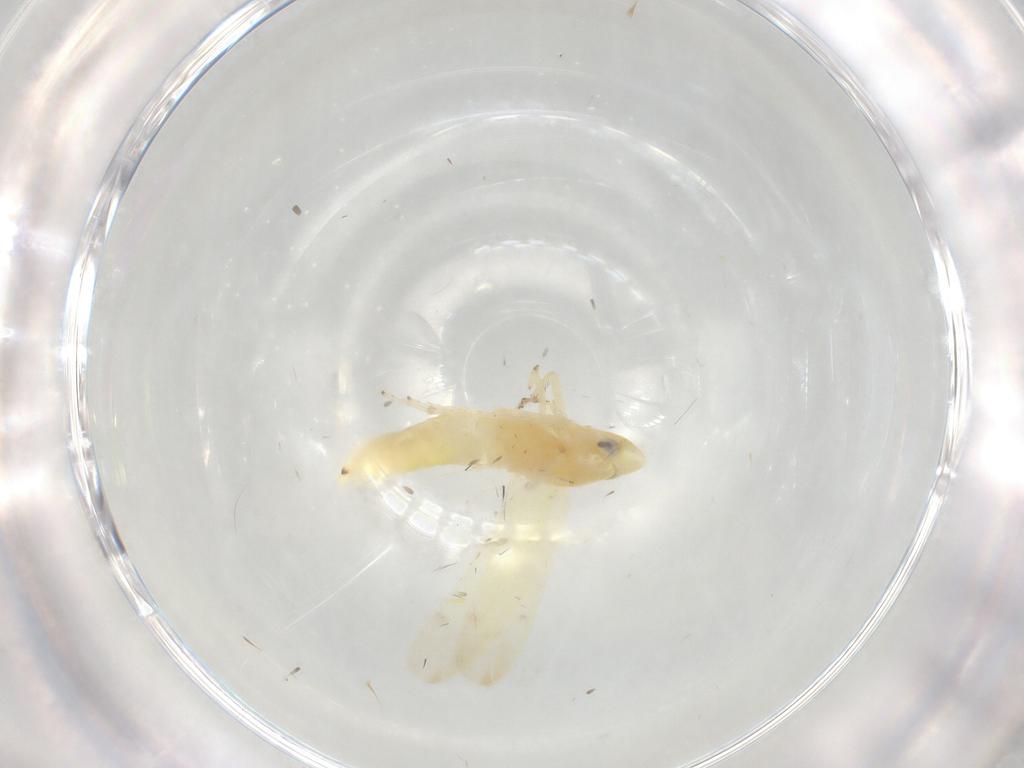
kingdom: Animalia
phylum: Arthropoda
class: Insecta
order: Hemiptera
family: Cicadellidae
